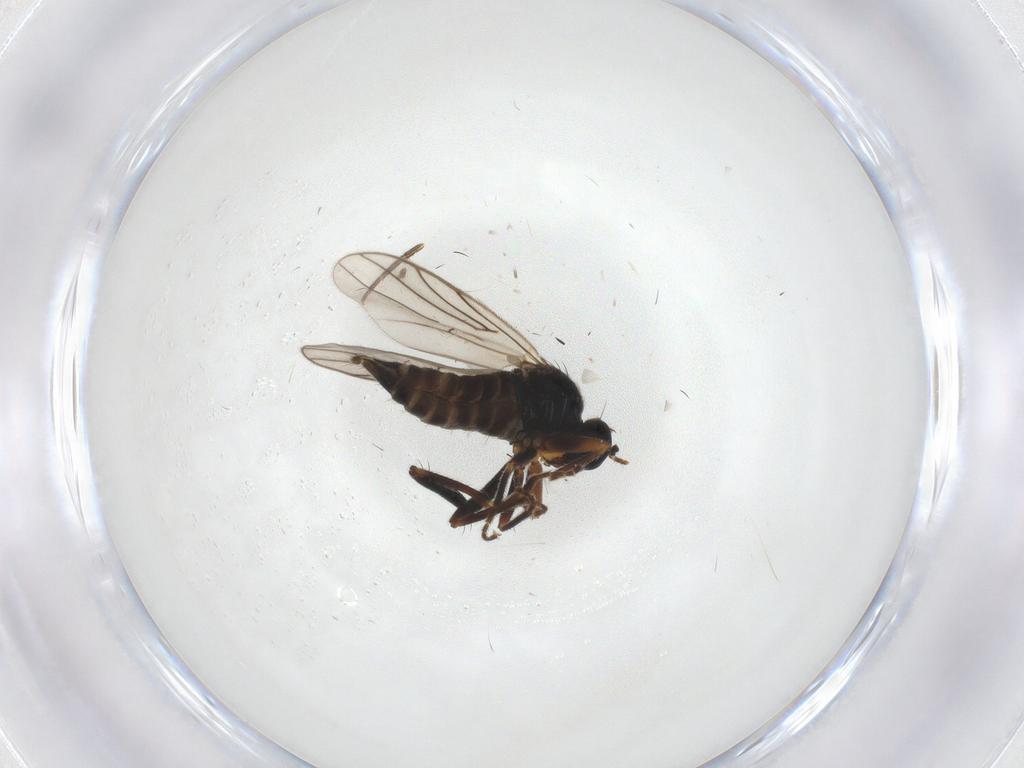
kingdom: Animalia
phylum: Arthropoda
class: Insecta
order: Diptera
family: Hybotidae
